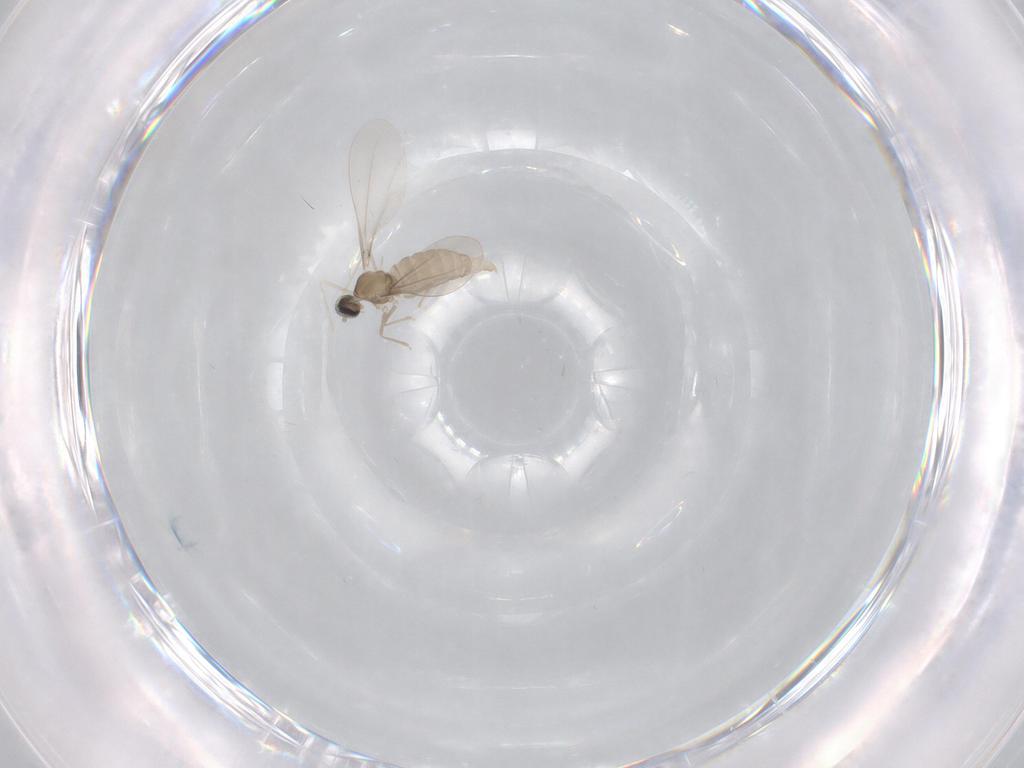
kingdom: Animalia
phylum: Arthropoda
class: Insecta
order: Diptera
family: Cecidomyiidae
